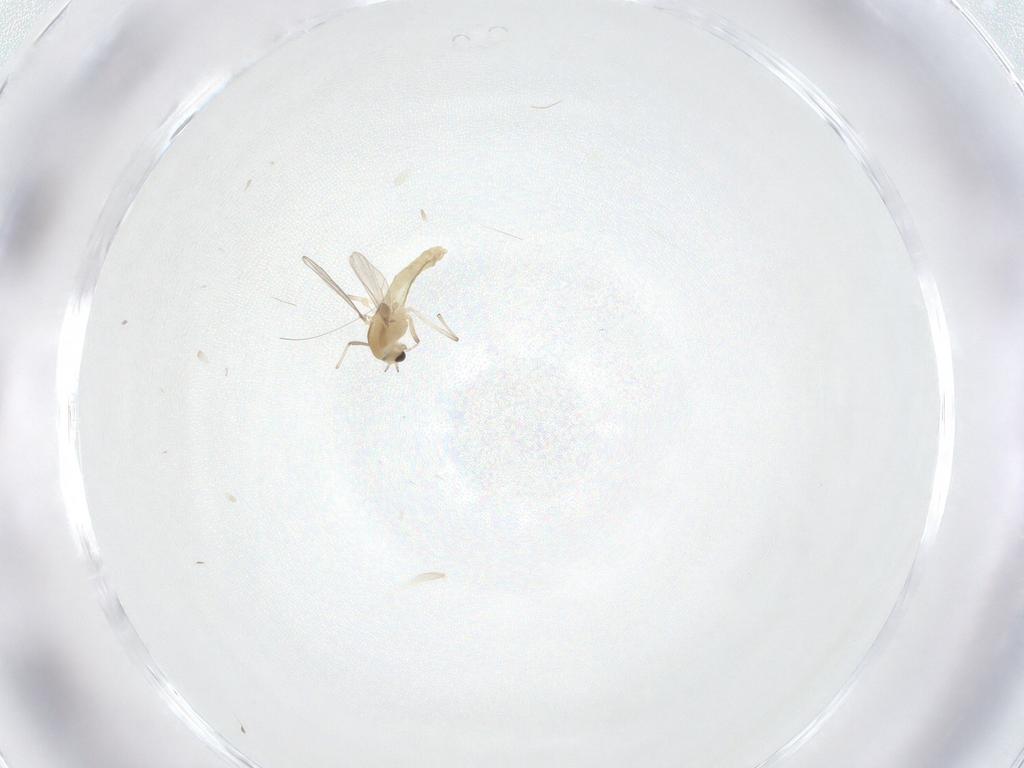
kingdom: Animalia
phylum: Arthropoda
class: Insecta
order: Diptera
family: Chironomidae
